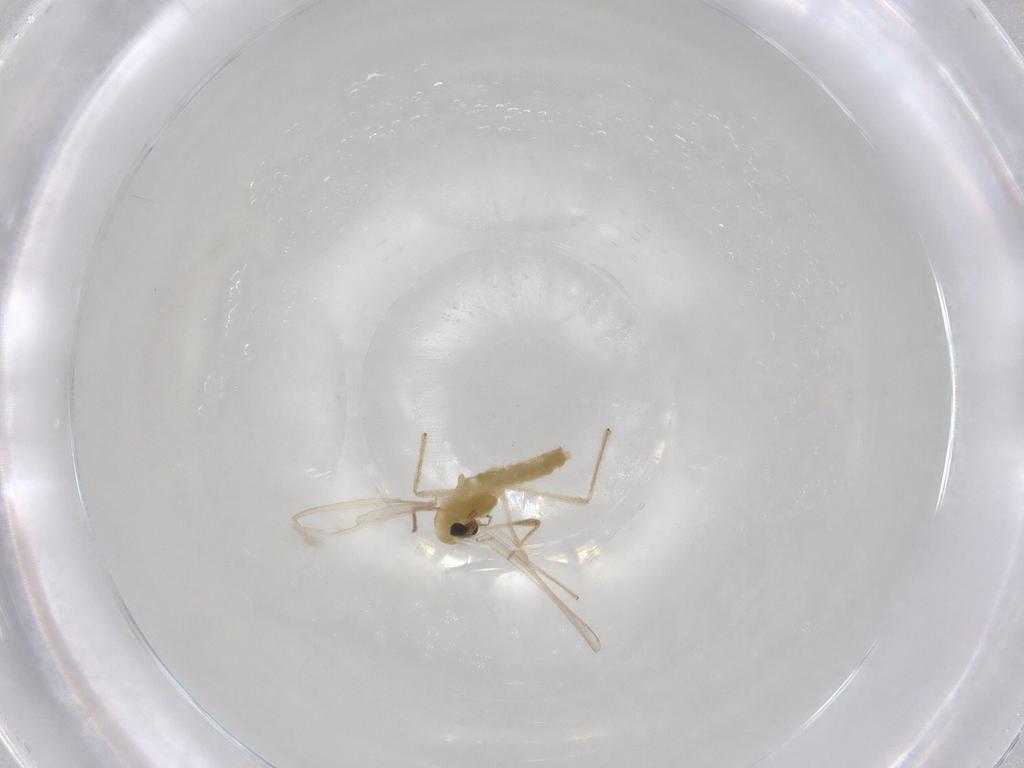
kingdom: Animalia
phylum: Arthropoda
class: Insecta
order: Diptera
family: Chironomidae
